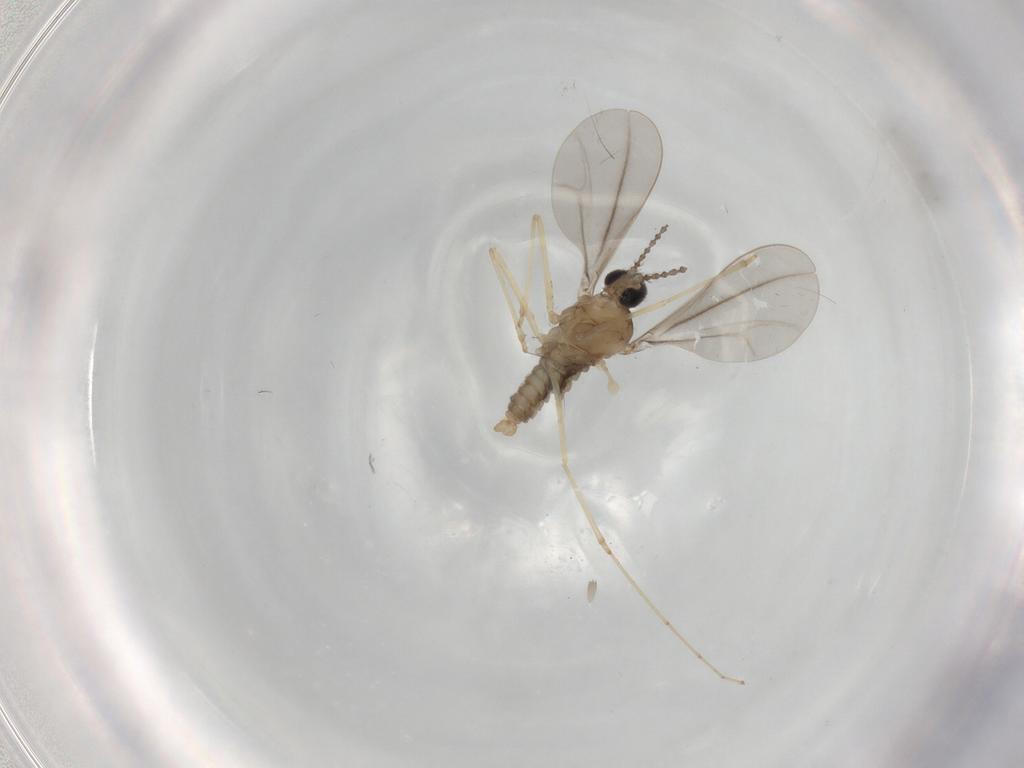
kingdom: Animalia
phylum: Arthropoda
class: Insecta
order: Diptera
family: Cecidomyiidae
